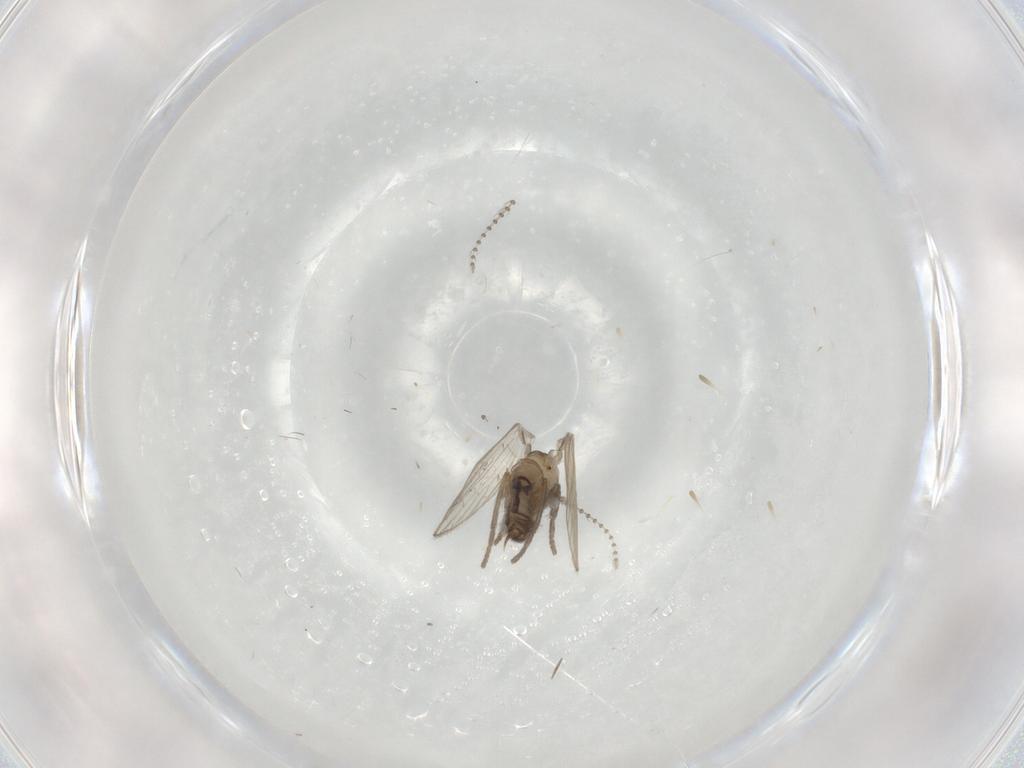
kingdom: Animalia
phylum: Arthropoda
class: Insecta
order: Diptera
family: Psychodidae
